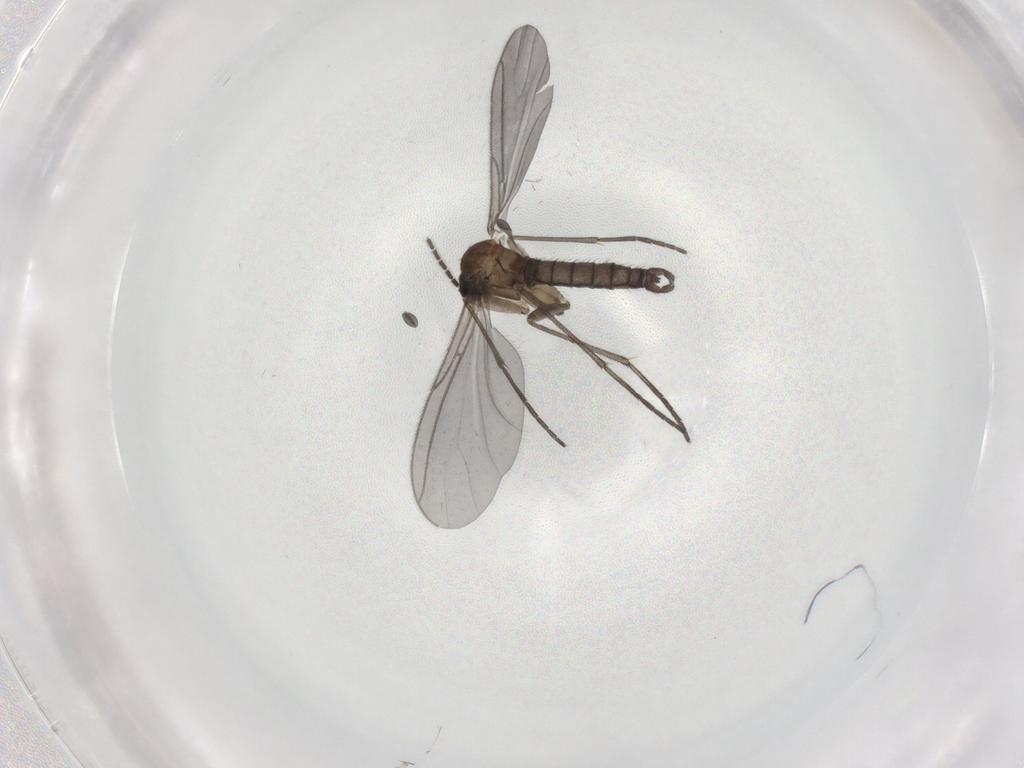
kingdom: Animalia
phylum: Arthropoda
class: Insecta
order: Diptera
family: Sciaridae
